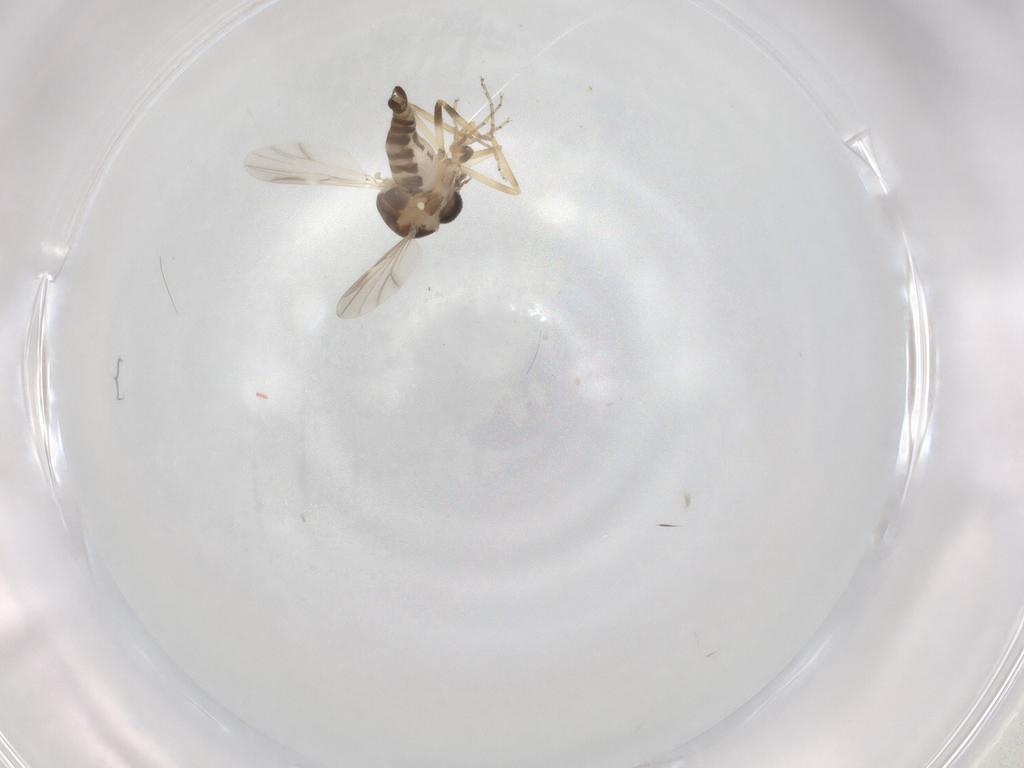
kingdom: Animalia
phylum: Arthropoda
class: Insecta
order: Diptera
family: Ceratopogonidae
